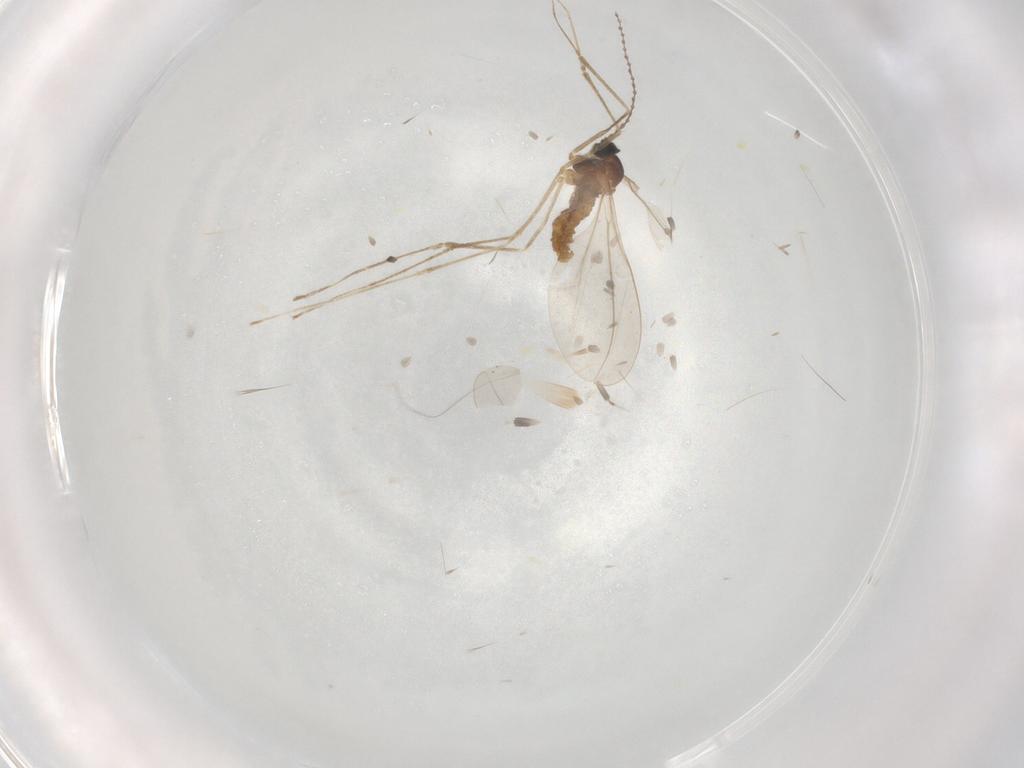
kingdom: Animalia
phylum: Arthropoda
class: Insecta
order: Diptera
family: Cecidomyiidae
